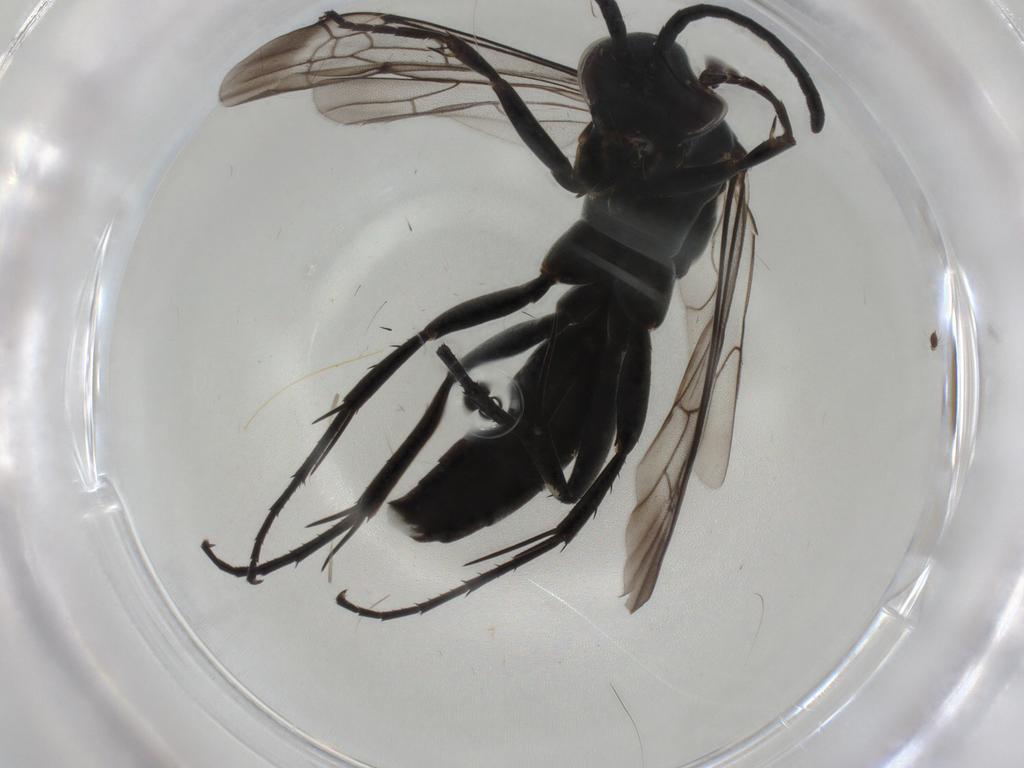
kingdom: Animalia
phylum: Arthropoda
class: Insecta
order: Hymenoptera
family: Pompilidae
